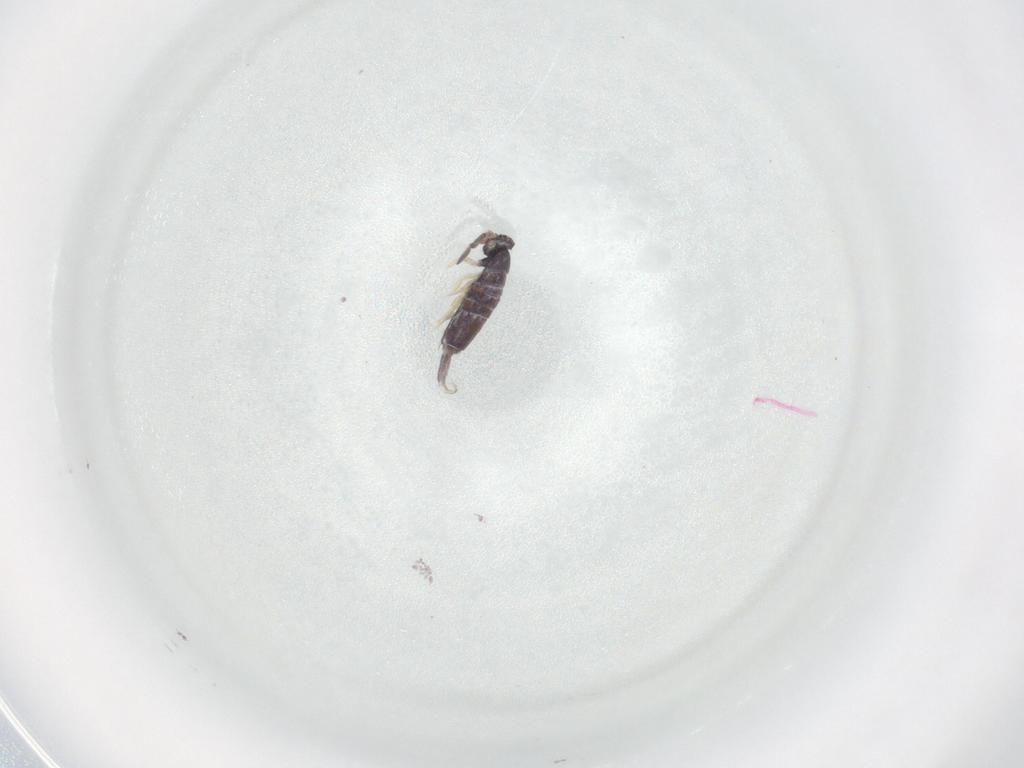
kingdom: Animalia
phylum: Arthropoda
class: Collembola
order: Entomobryomorpha
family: Entomobryidae
